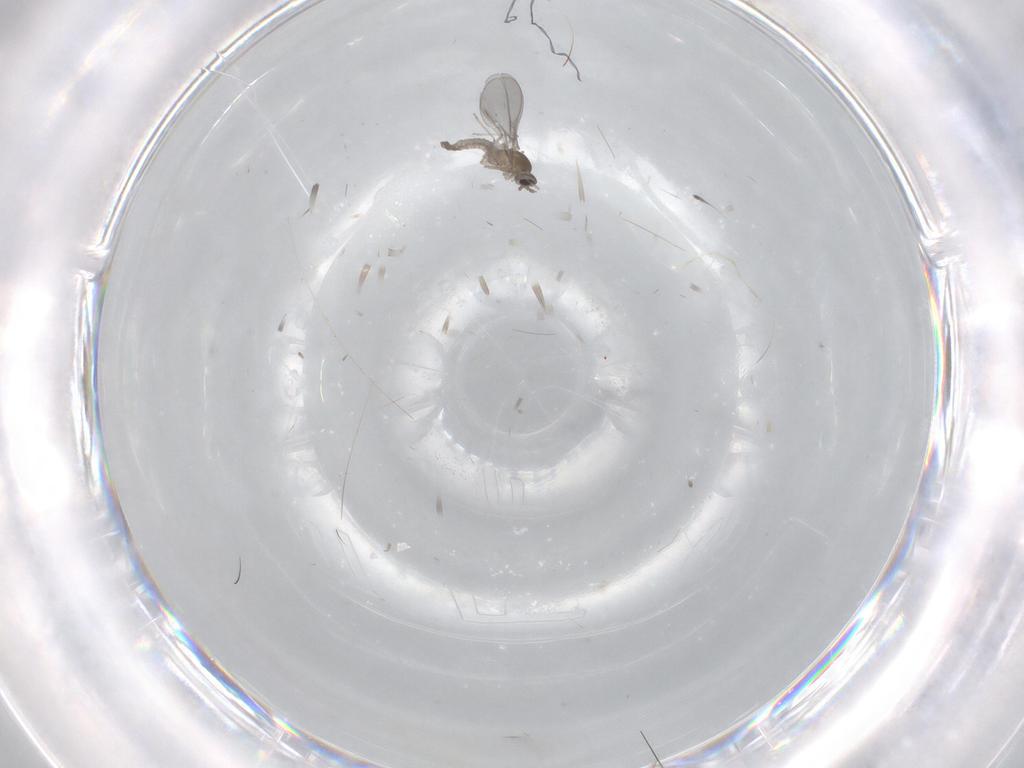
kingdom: Animalia
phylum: Arthropoda
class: Insecta
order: Diptera
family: Cecidomyiidae
